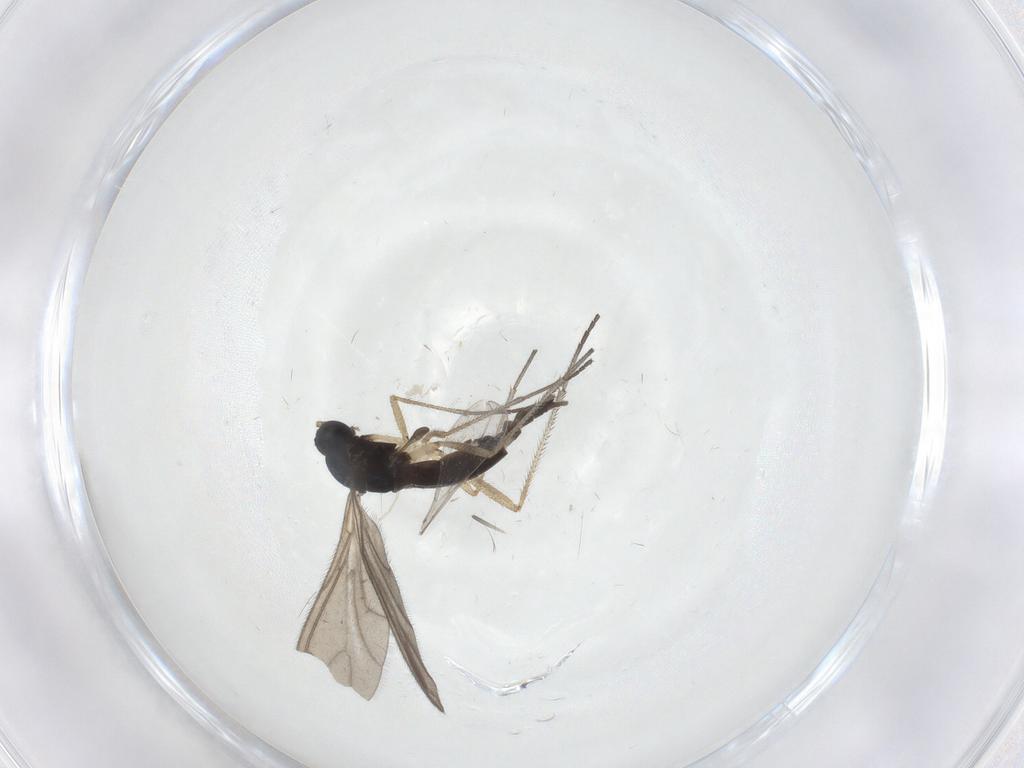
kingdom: Animalia
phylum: Arthropoda
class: Insecta
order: Diptera
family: Sciaridae
